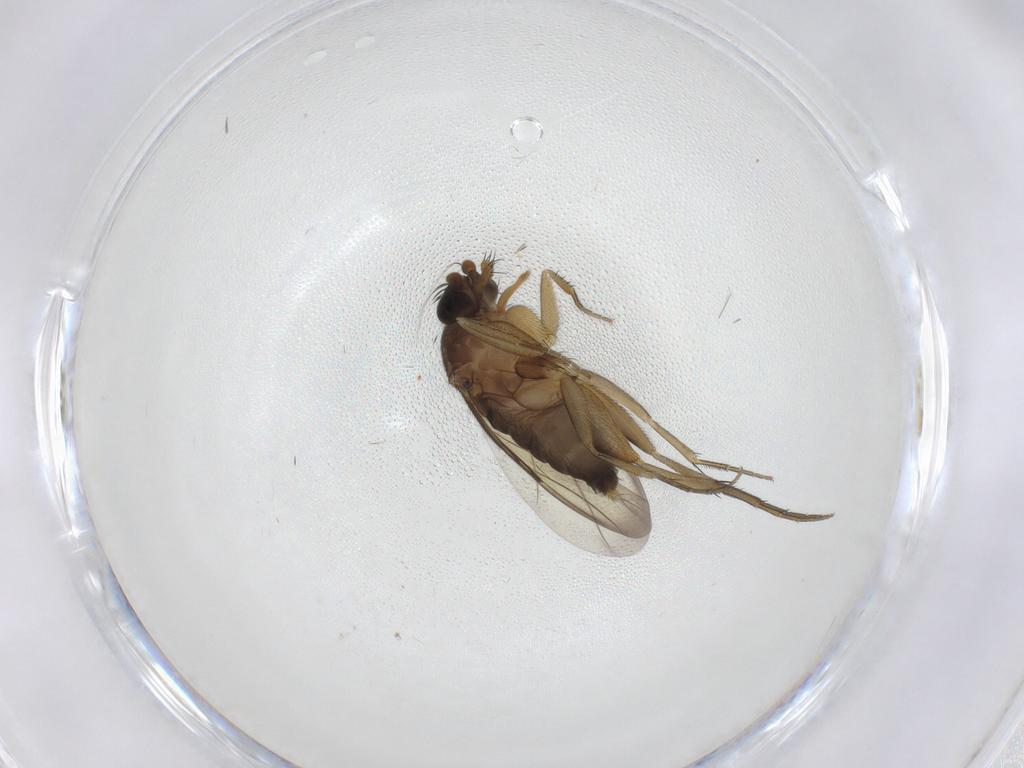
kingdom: Animalia
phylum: Arthropoda
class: Insecta
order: Diptera
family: Phoridae
